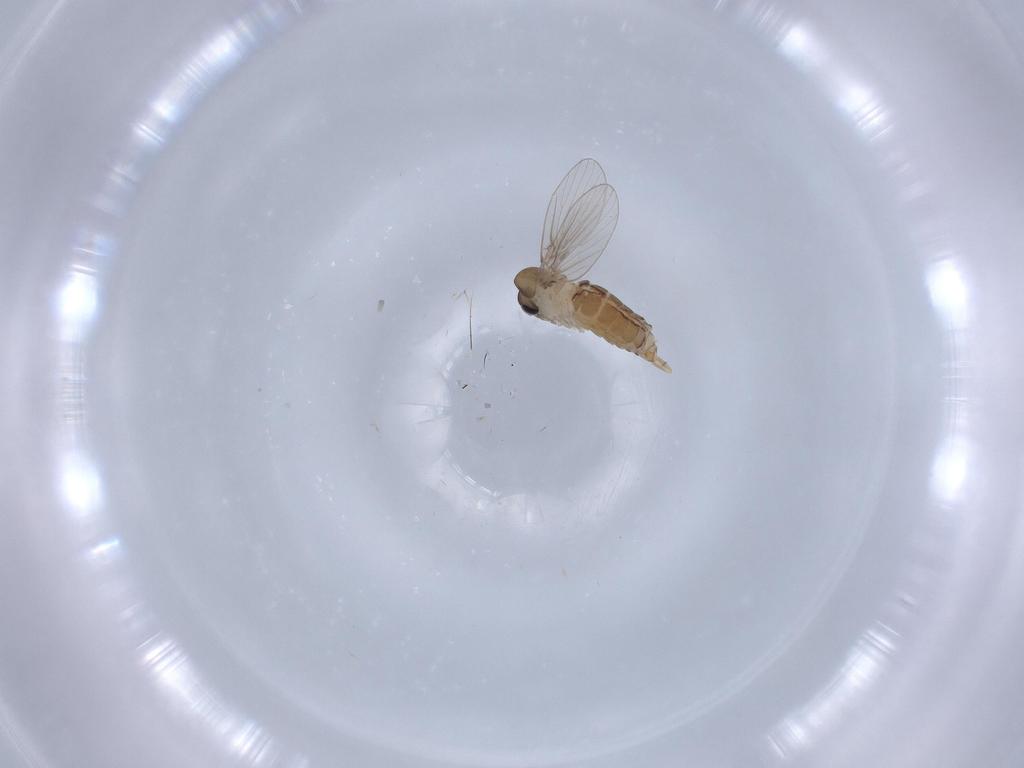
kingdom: Animalia
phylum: Arthropoda
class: Insecta
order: Diptera
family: Psychodidae
